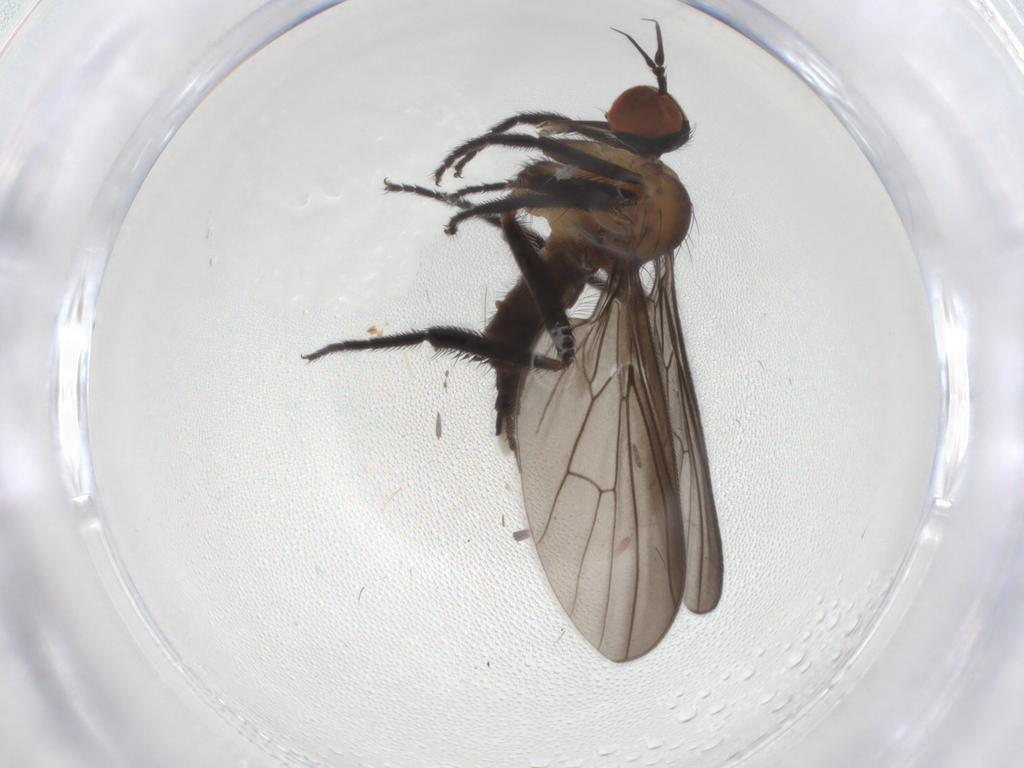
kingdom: Animalia
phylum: Arthropoda
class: Insecta
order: Diptera
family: Empididae
